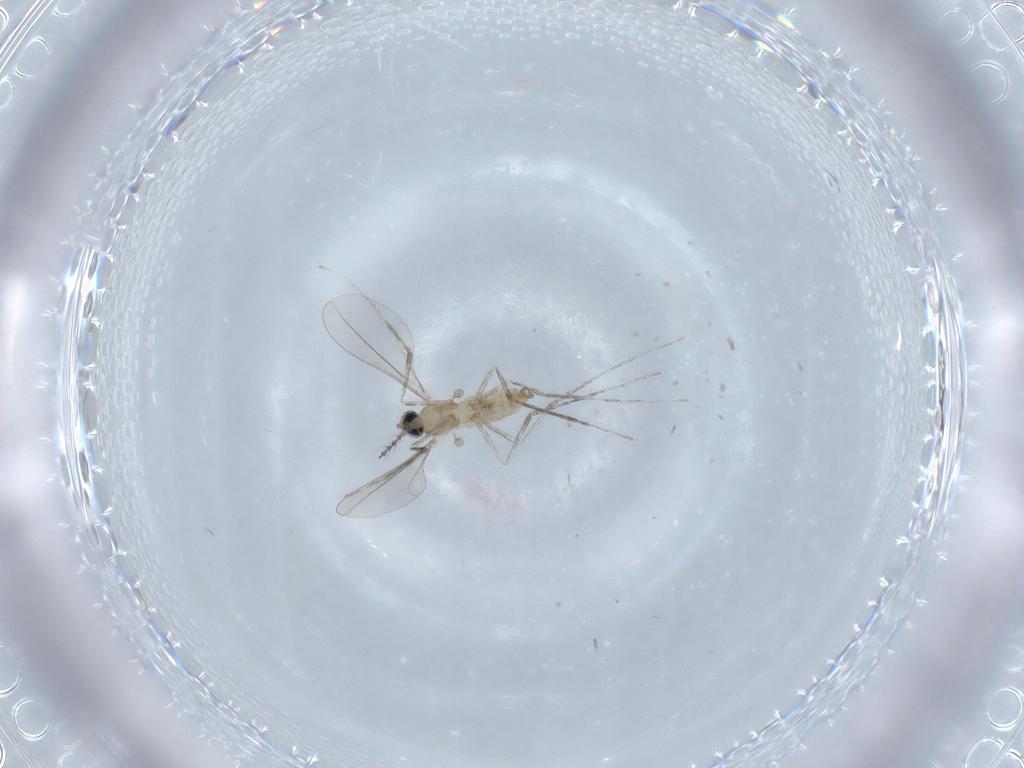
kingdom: Animalia
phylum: Arthropoda
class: Insecta
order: Diptera
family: Cecidomyiidae
